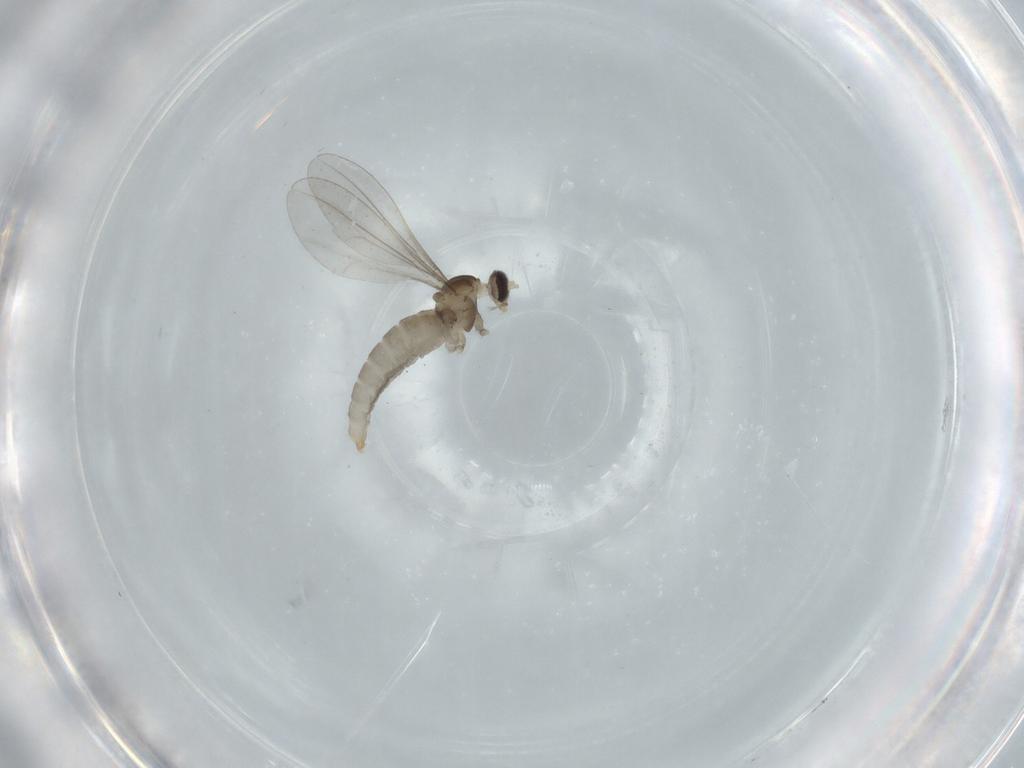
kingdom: Animalia
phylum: Arthropoda
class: Insecta
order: Diptera
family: Cecidomyiidae
